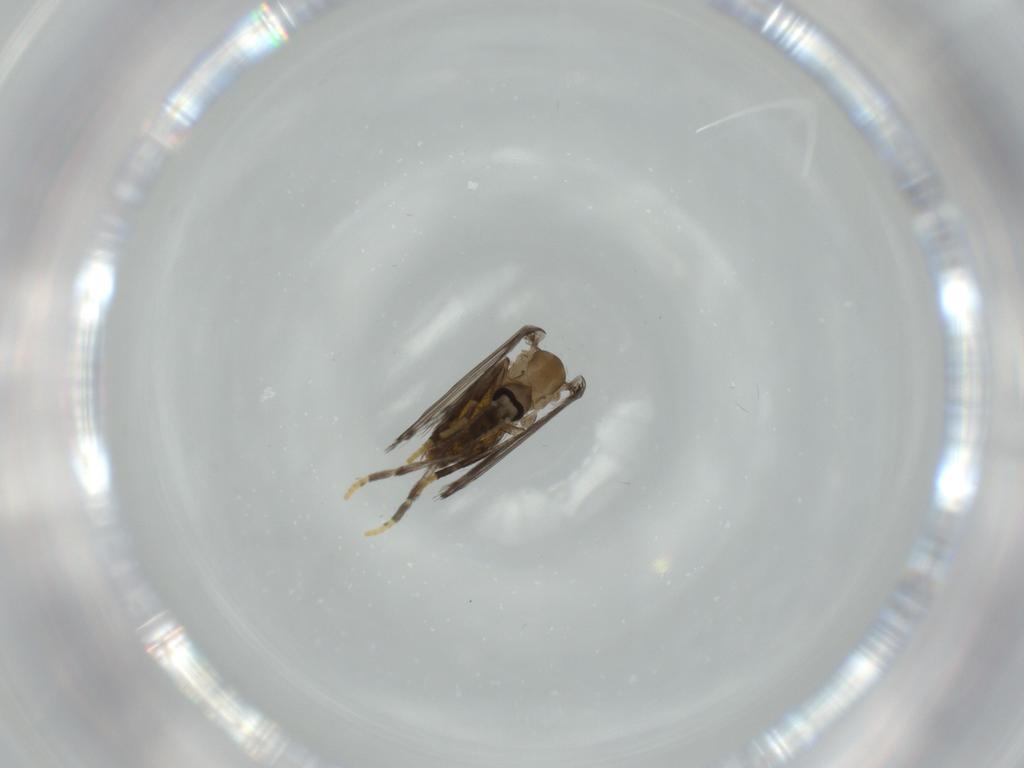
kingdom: Animalia
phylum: Arthropoda
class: Insecta
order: Diptera
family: Psychodidae
